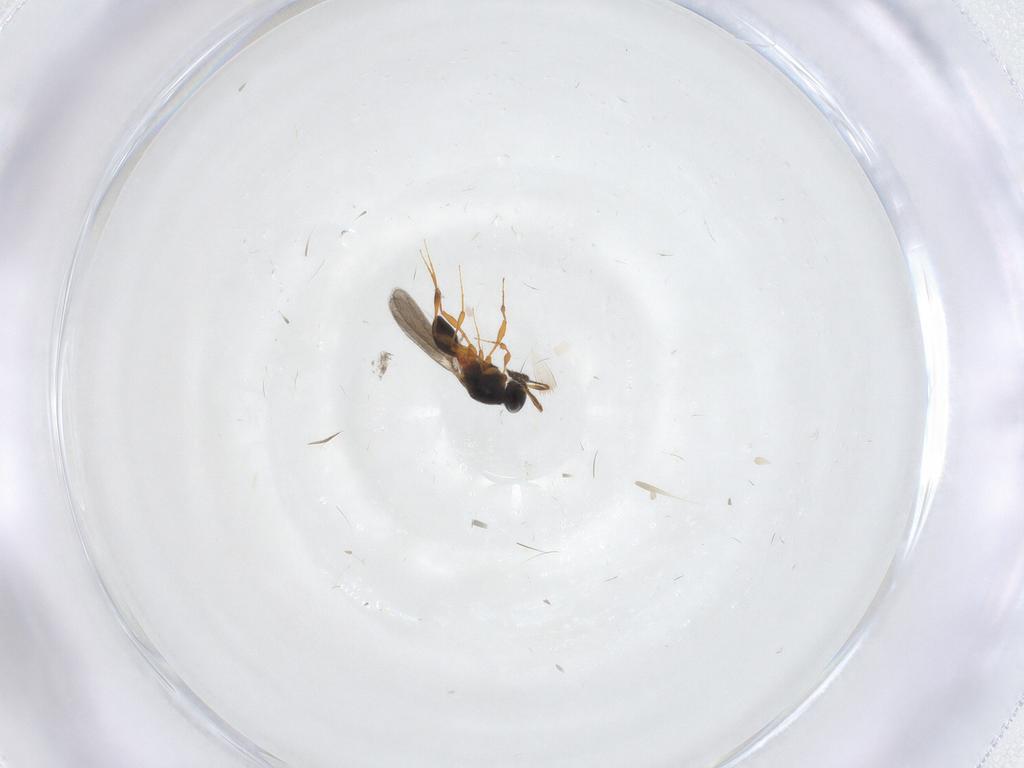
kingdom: Animalia
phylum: Arthropoda
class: Insecta
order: Hymenoptera
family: Platygastridae
